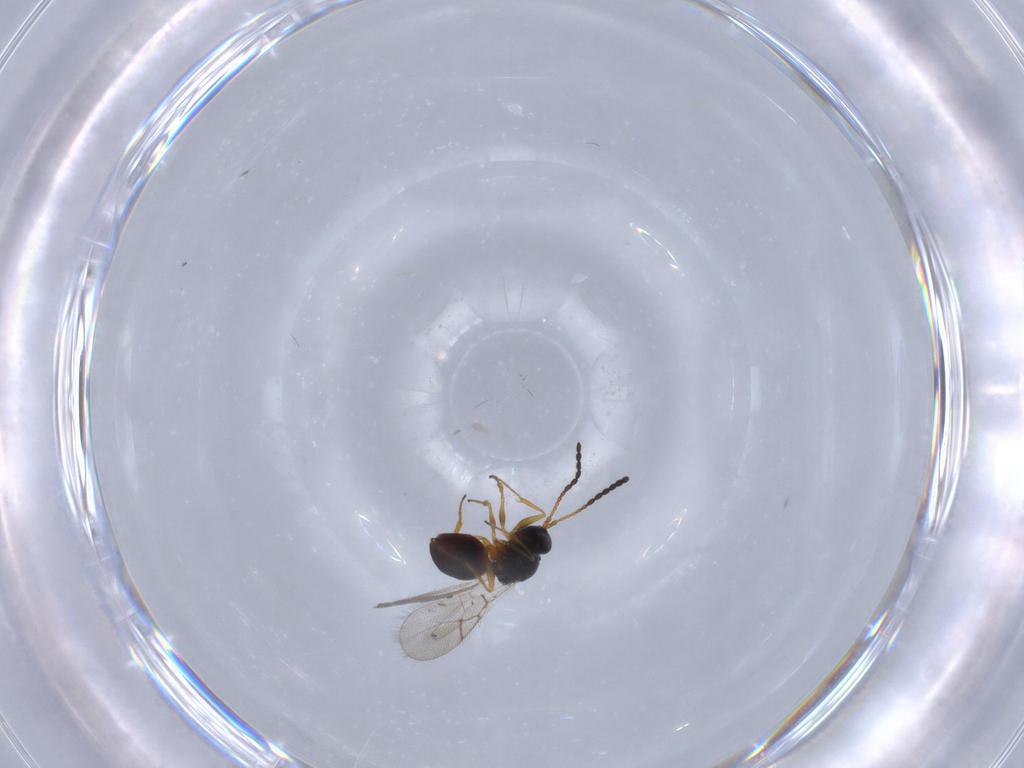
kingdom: Animalia
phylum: Arthropoda
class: Insecta
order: Hymenoptera
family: Figitidae
